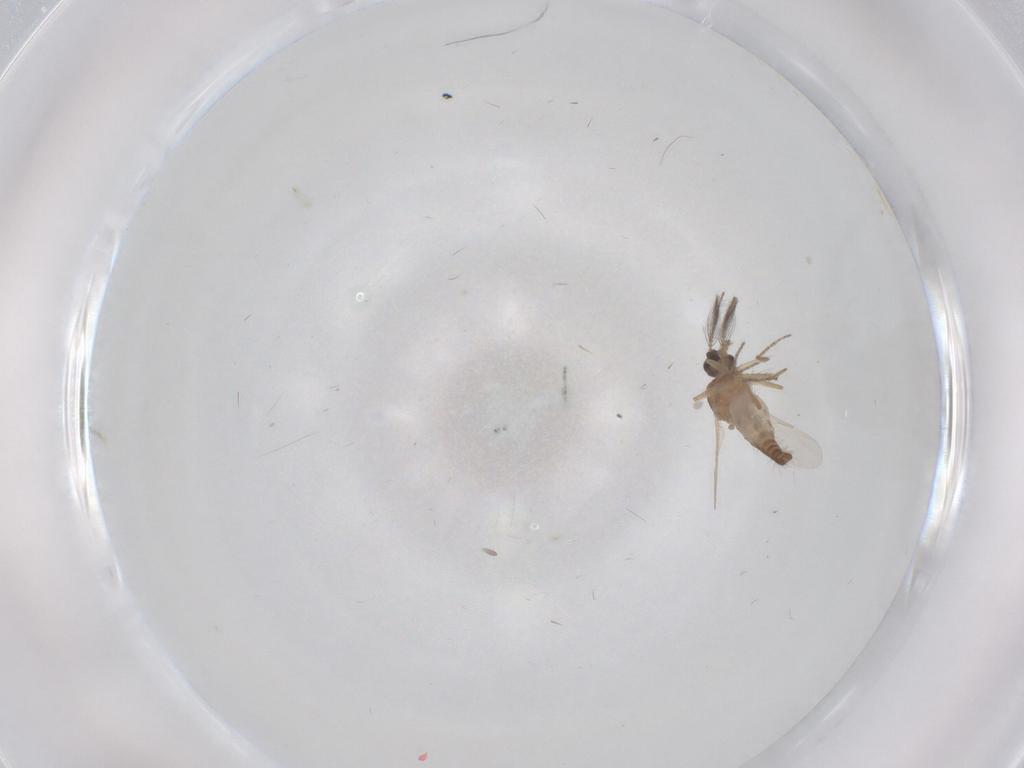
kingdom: Animalia
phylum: Arthropoda
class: Insecta
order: Diptera
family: Ceratopogonidae
